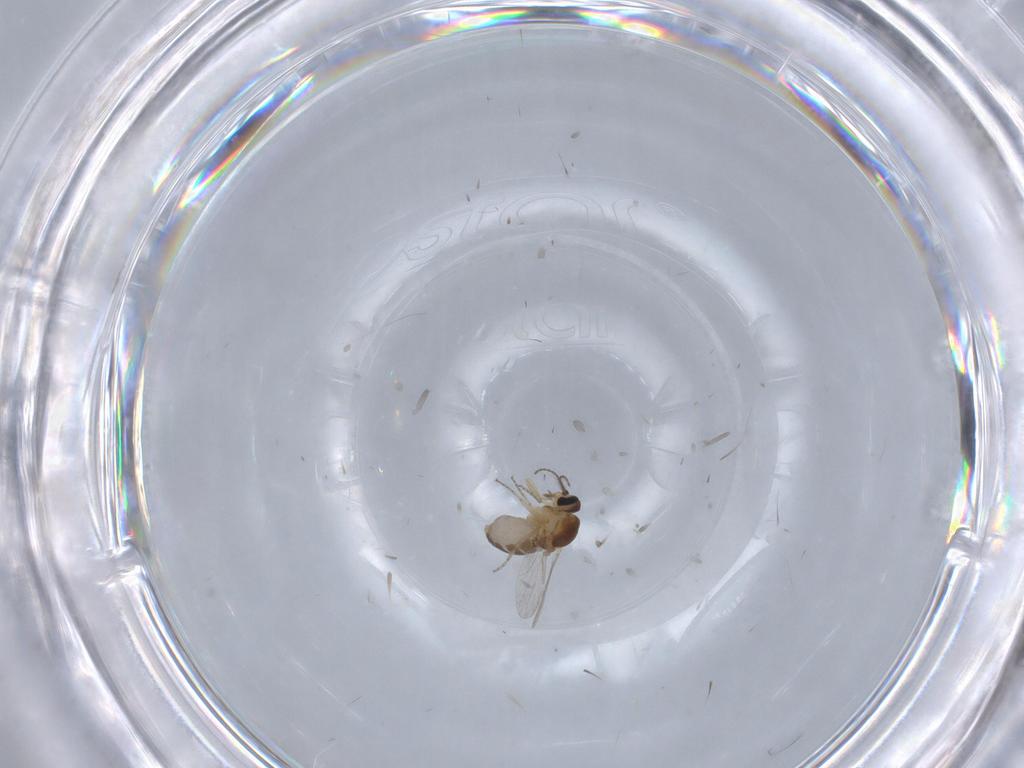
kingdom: Animalia
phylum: Arthropoda
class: Insecta
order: Diptera
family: Ceratopogonidae
